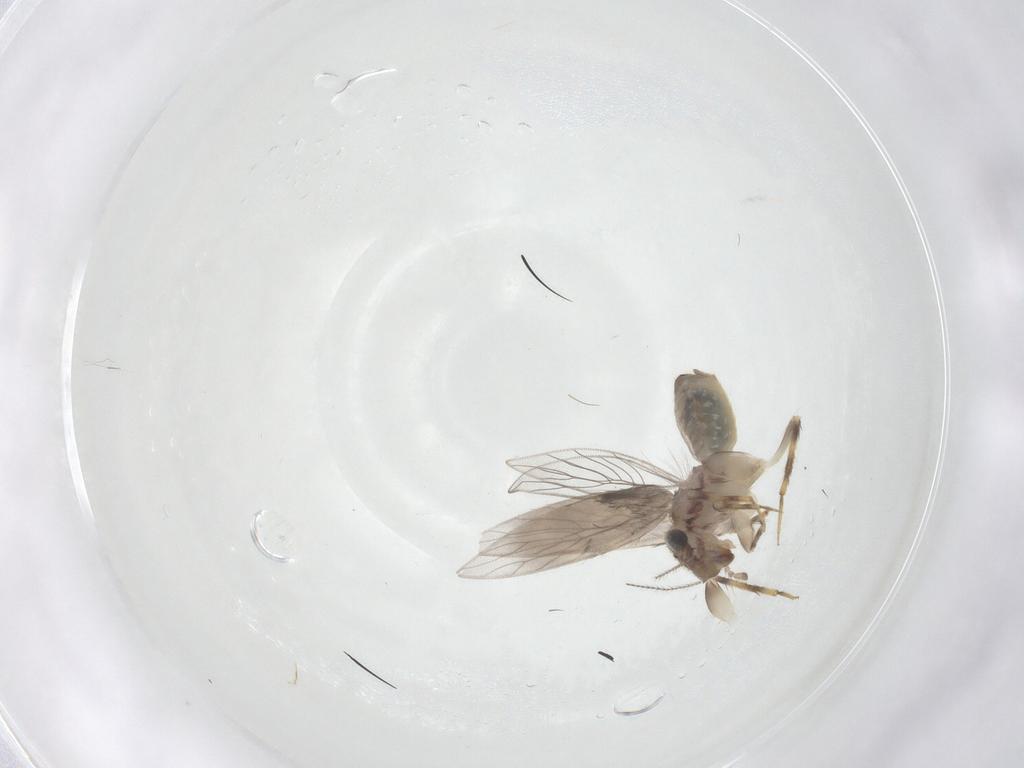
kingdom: Animalia
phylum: Arthropoda
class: Insecta
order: Psocodea
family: Lepidopsocidae
